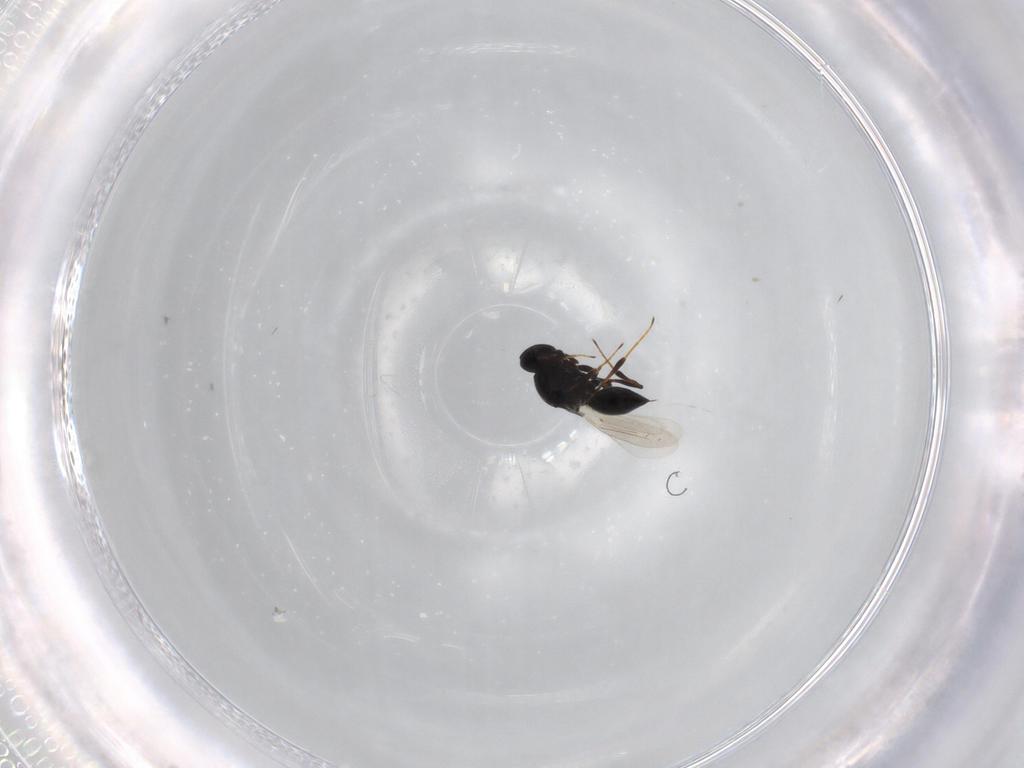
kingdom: Animalia
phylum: Arthropoda
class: Insecta
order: Hymenoptera
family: Platygastridae
